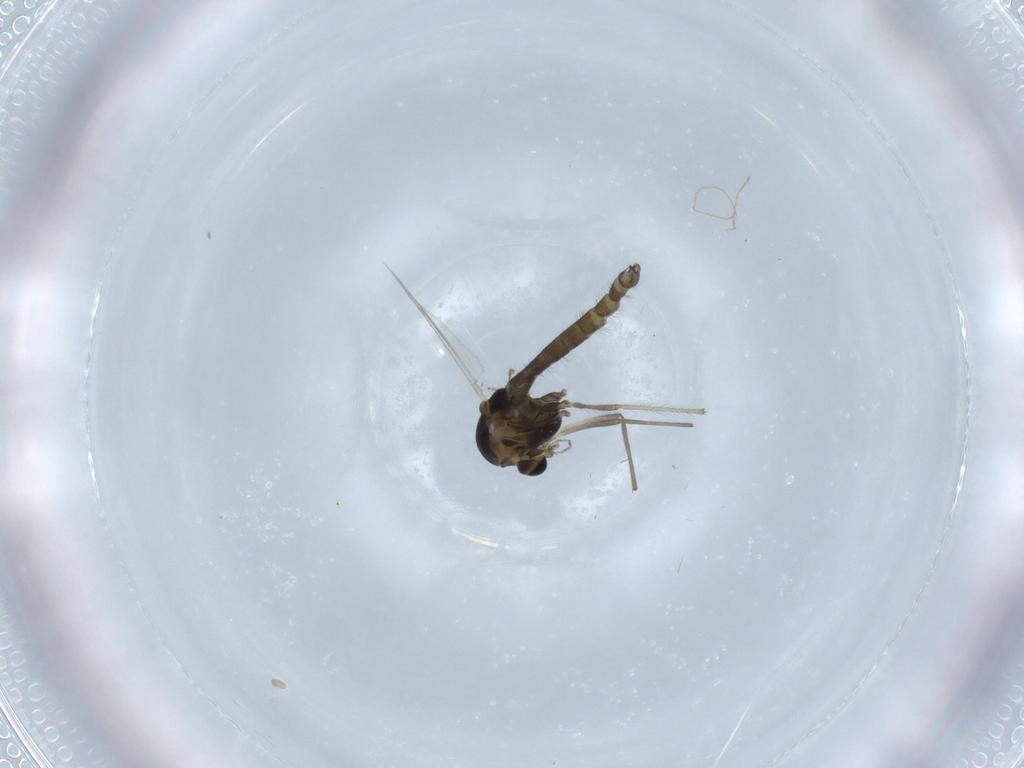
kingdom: Animalia
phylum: Arthropoda
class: Insecta
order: Diptera
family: Chironomidae
